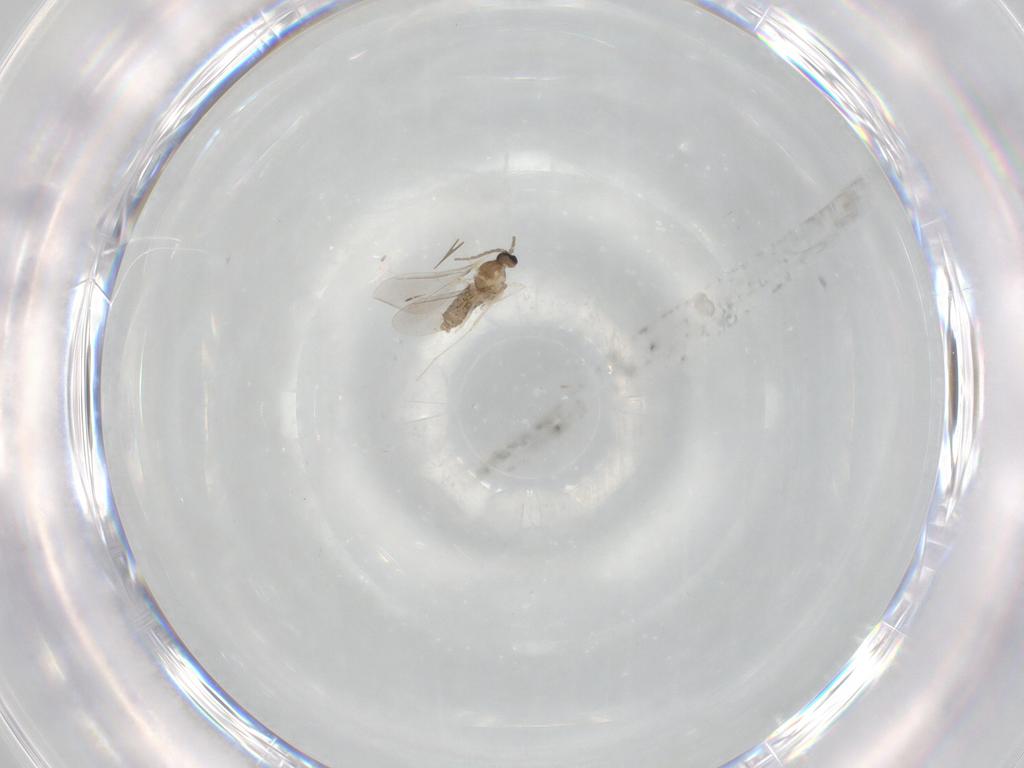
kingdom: Animalia
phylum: Arthropoda
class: Insecta
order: Diptera
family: Cecidomyiidae
